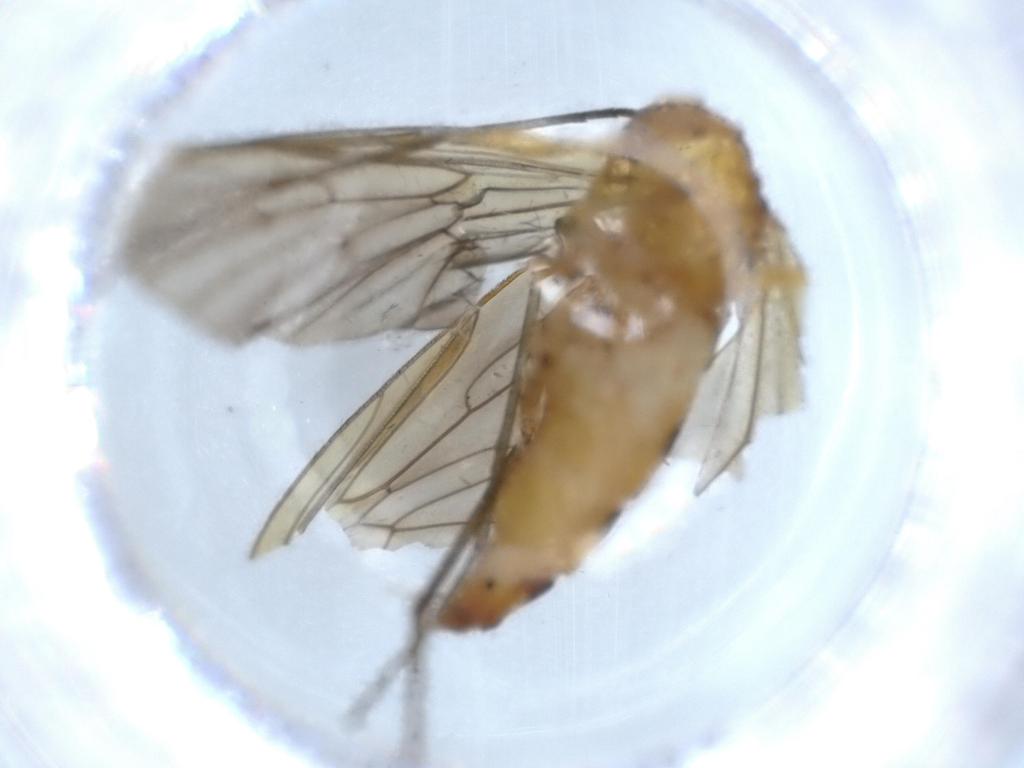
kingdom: Animalia
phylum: Arthropoda
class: Insecta
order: Diptera
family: Rhagionidae
